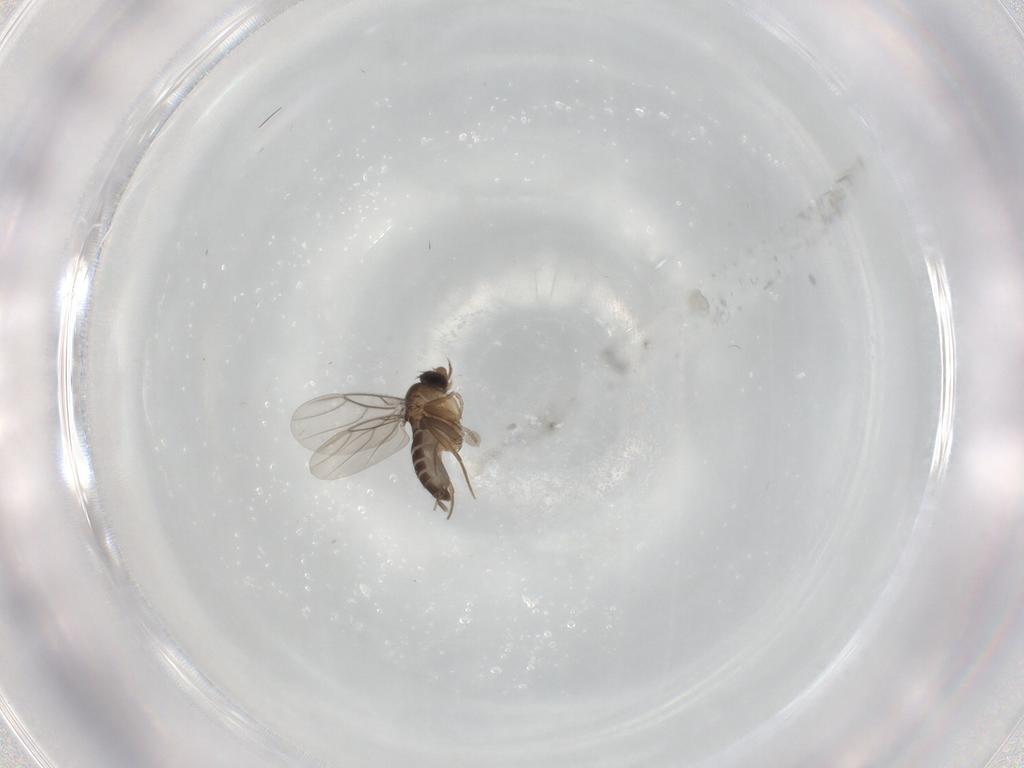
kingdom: Animalia
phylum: Arthropoda
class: Insecta
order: Diptera
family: Phoridae
